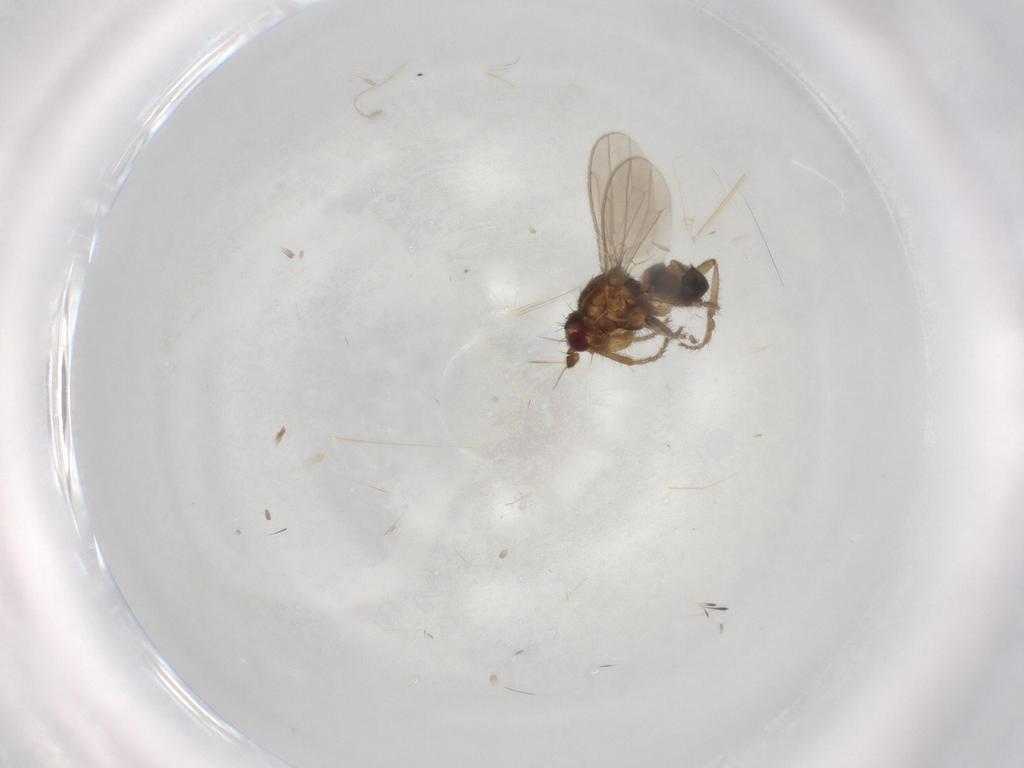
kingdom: Animalia
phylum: Arthropoda
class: Insecta
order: Diptera
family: Sphaeroceridae
